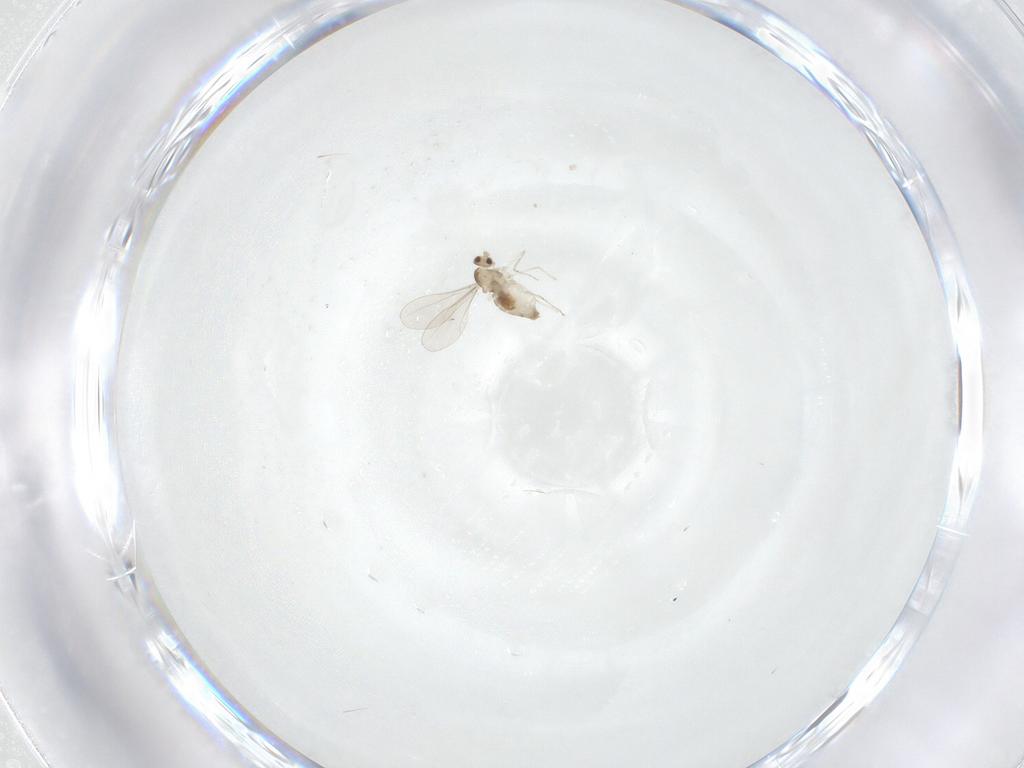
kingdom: Animalia
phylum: Arthropoda
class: Insecta
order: Diptera
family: Cecidomyiidae
